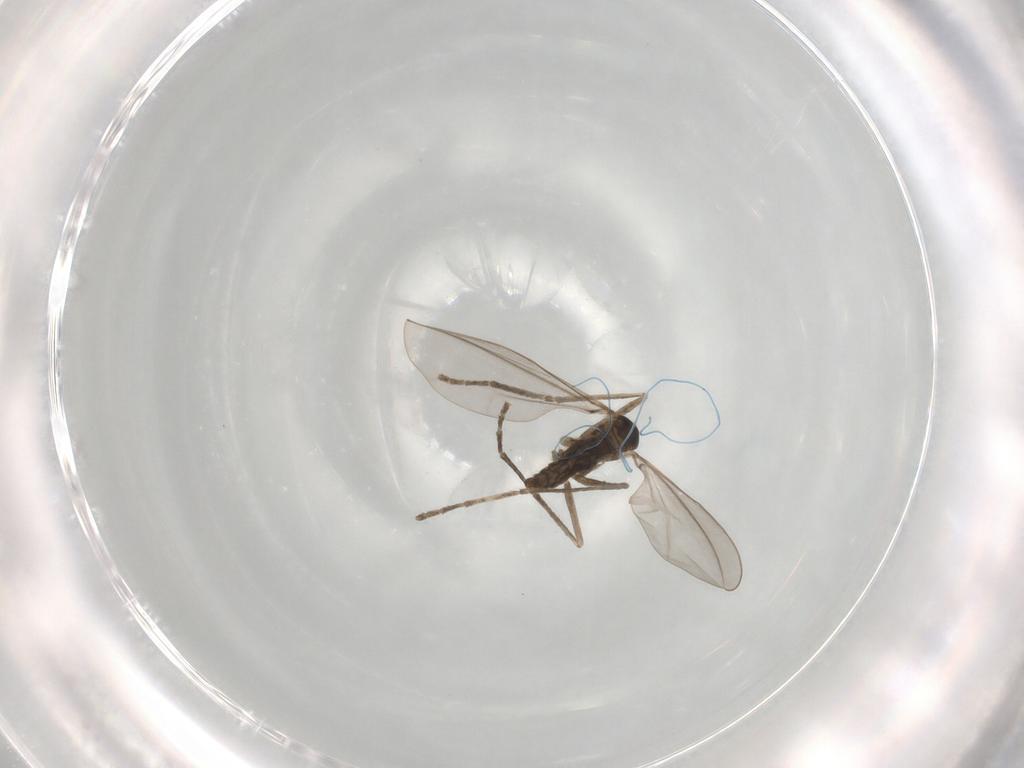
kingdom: Animalia
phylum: Arthropoda
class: Insecta
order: Diptera
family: Cecidomyiidae
